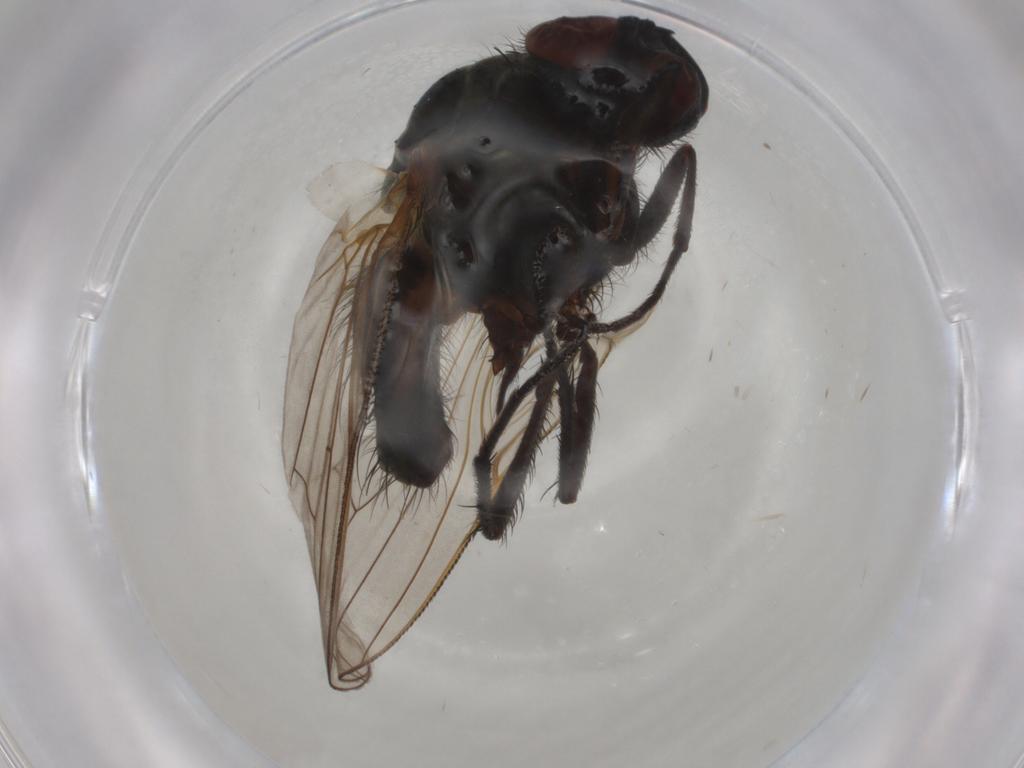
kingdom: Animalia
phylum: Arthropoda
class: Insecta
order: Diptera
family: Anthomyiidae
